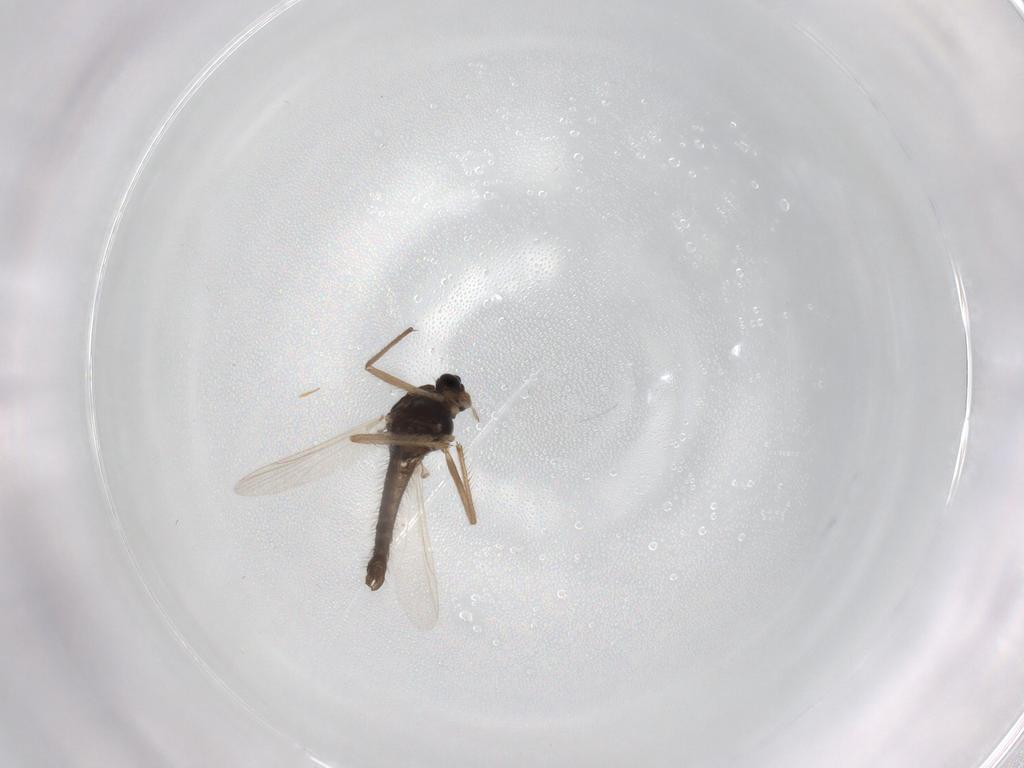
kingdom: Animalia
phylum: Arthropoda
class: Insecta
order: Diptera
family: Chironomidae
